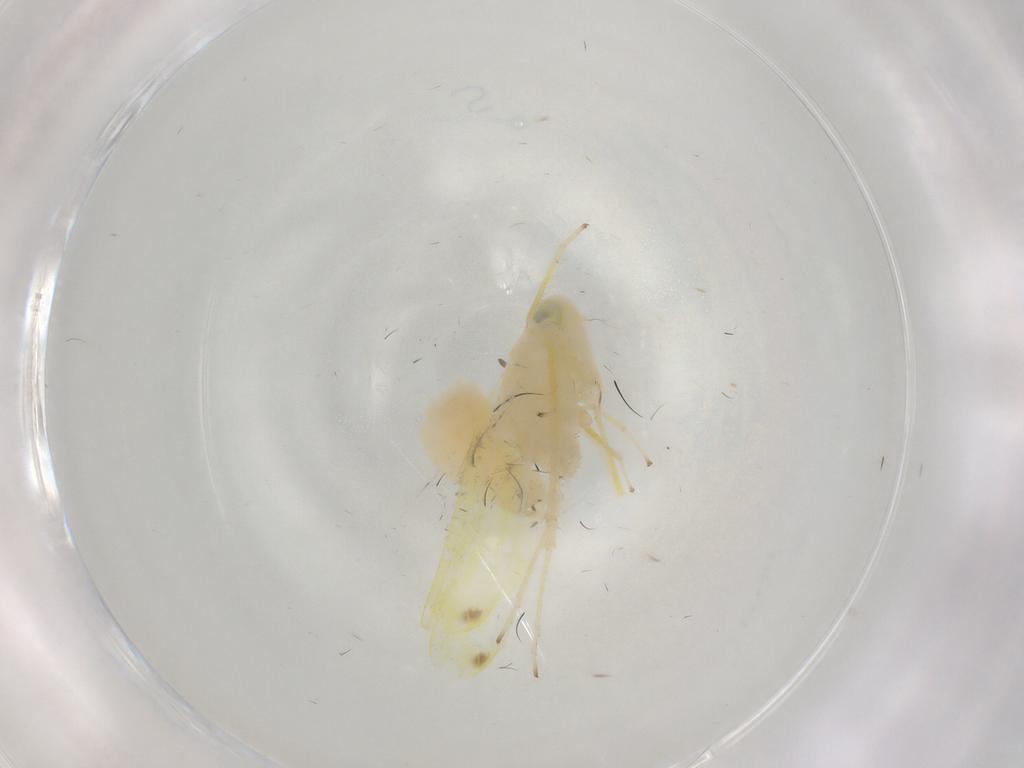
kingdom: Animalia
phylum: Arthropoda
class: Insecta
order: Hemiptera
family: Cicadellidae
